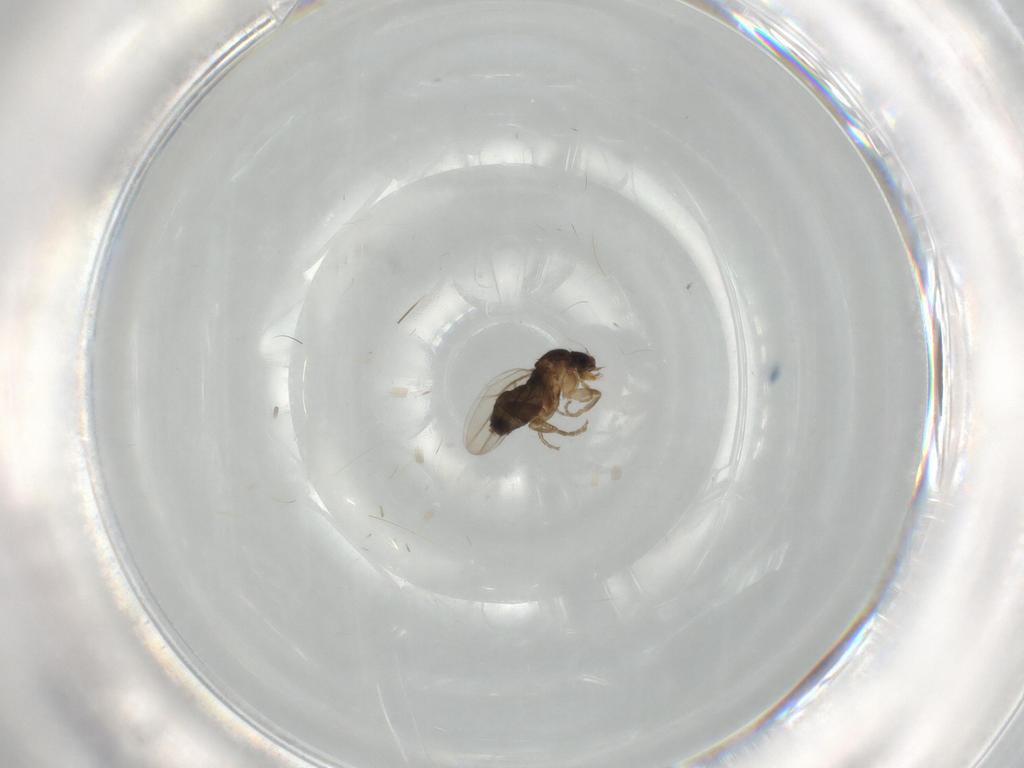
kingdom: Animalia
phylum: Arthropoda
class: Insecta
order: Diptera
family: Phoridae
